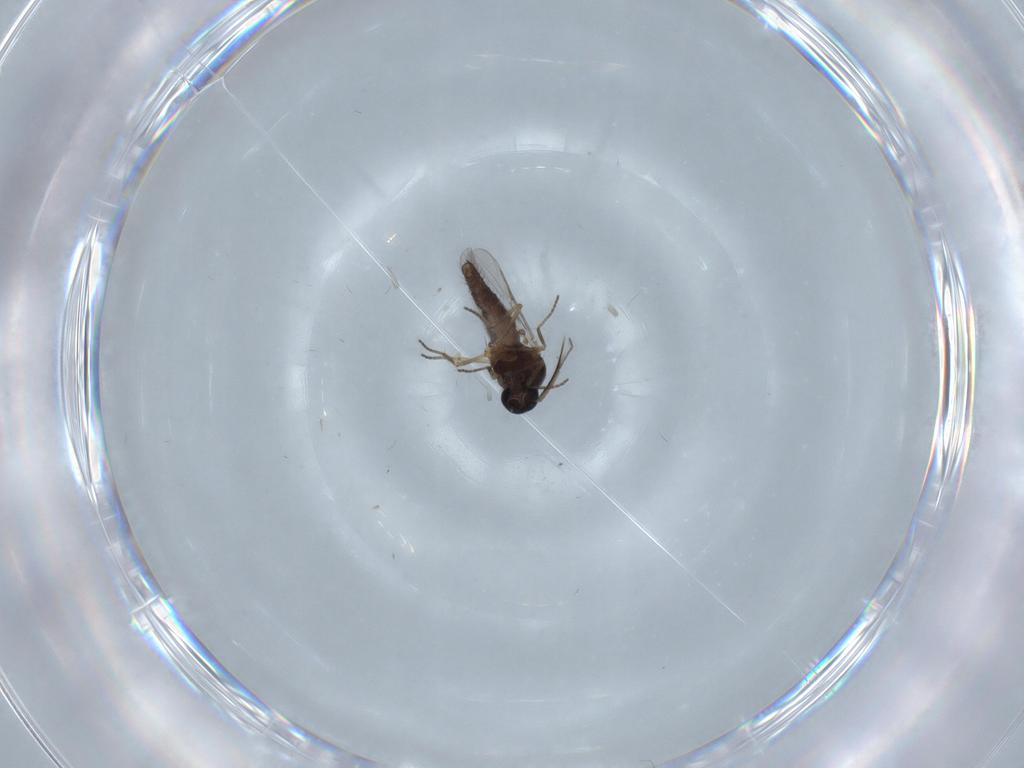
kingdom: Animalia
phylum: Arthropoda
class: Insecta
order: Diptera
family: Ceratopogonidae
